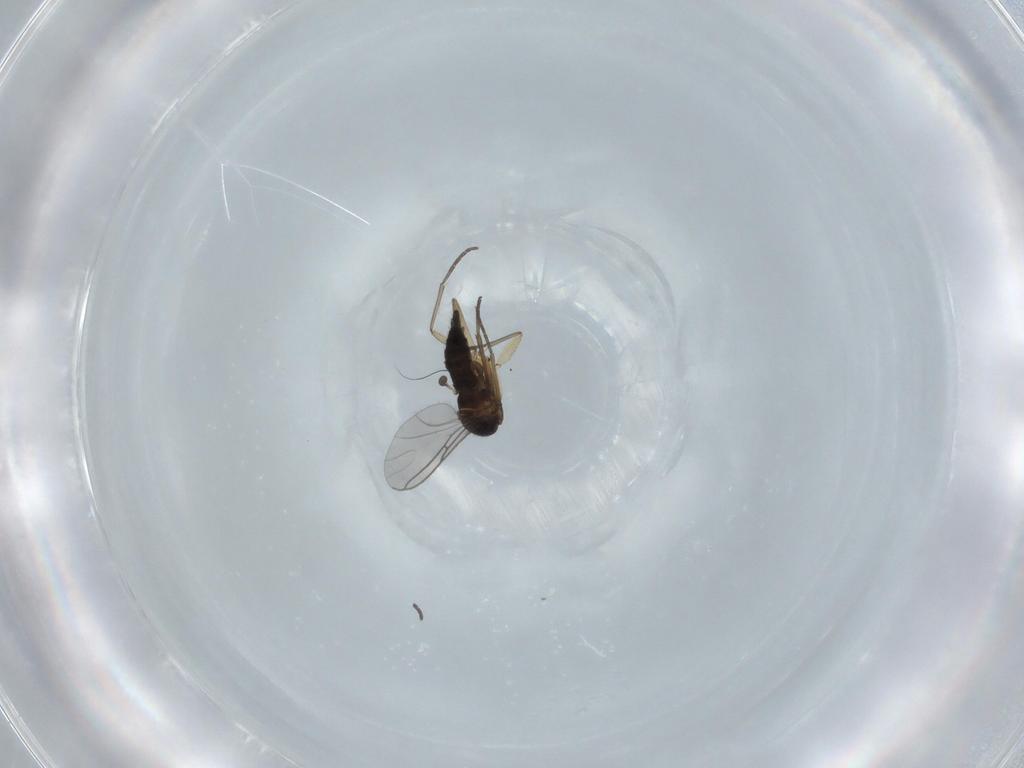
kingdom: Animalia
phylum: Arthropoda
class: Insecta
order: Diptera
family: Sciaridae
